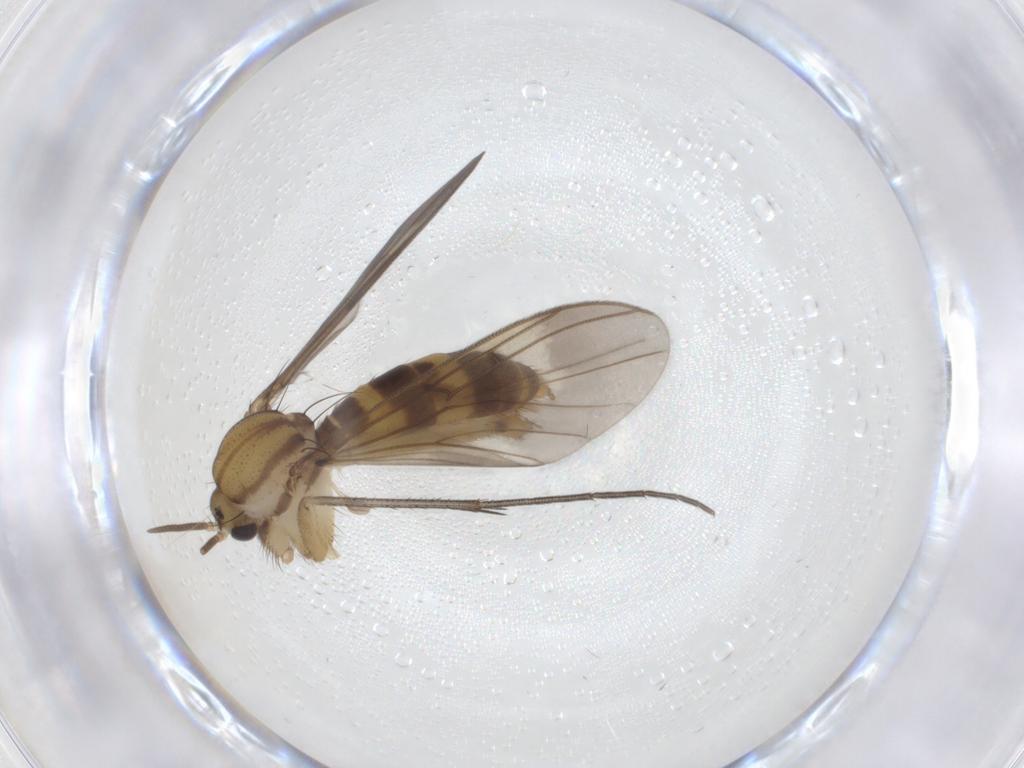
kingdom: Animalia
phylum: Arthropoda
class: Insecta
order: Diptera
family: Mycetophilidae
